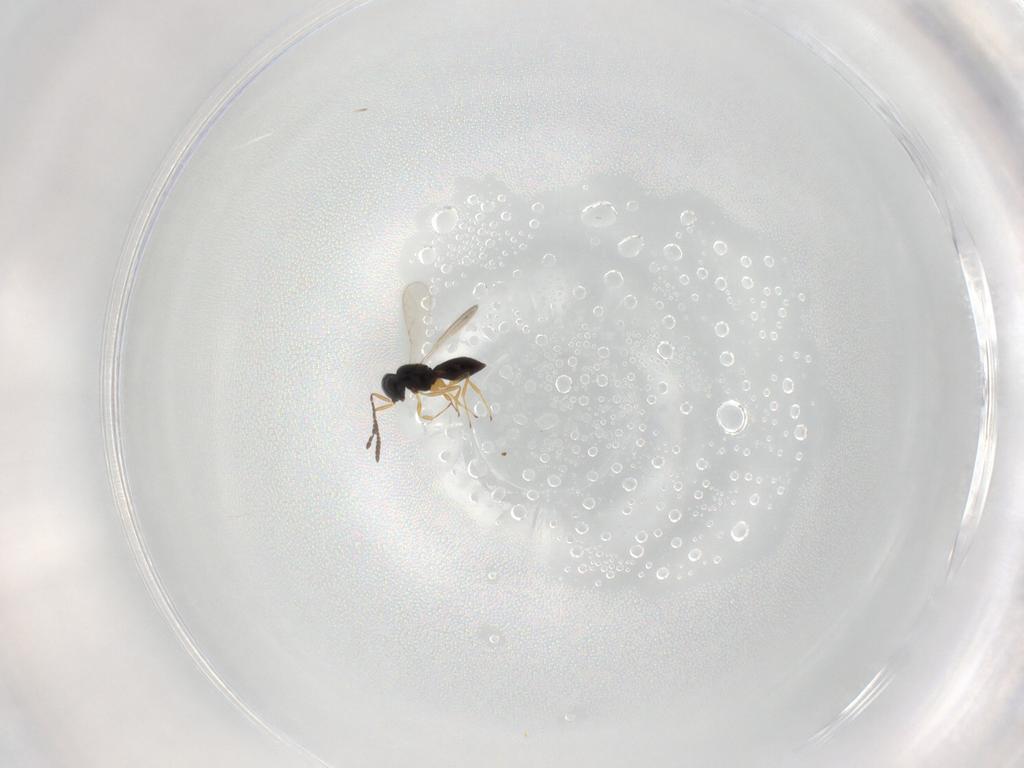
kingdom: Animalia
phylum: Arthropoda
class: Insecta
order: Hymenoptera
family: Scelionidae
